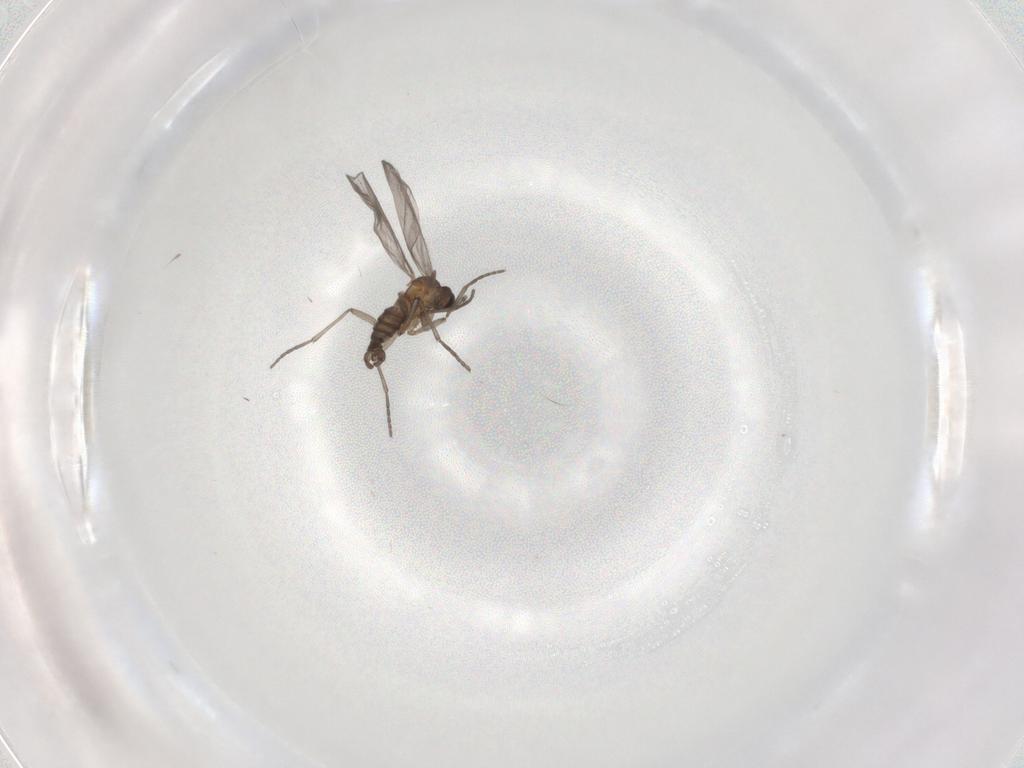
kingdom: Animalia
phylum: Arthropoda
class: Insecta
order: Diptera
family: Sciaridae
